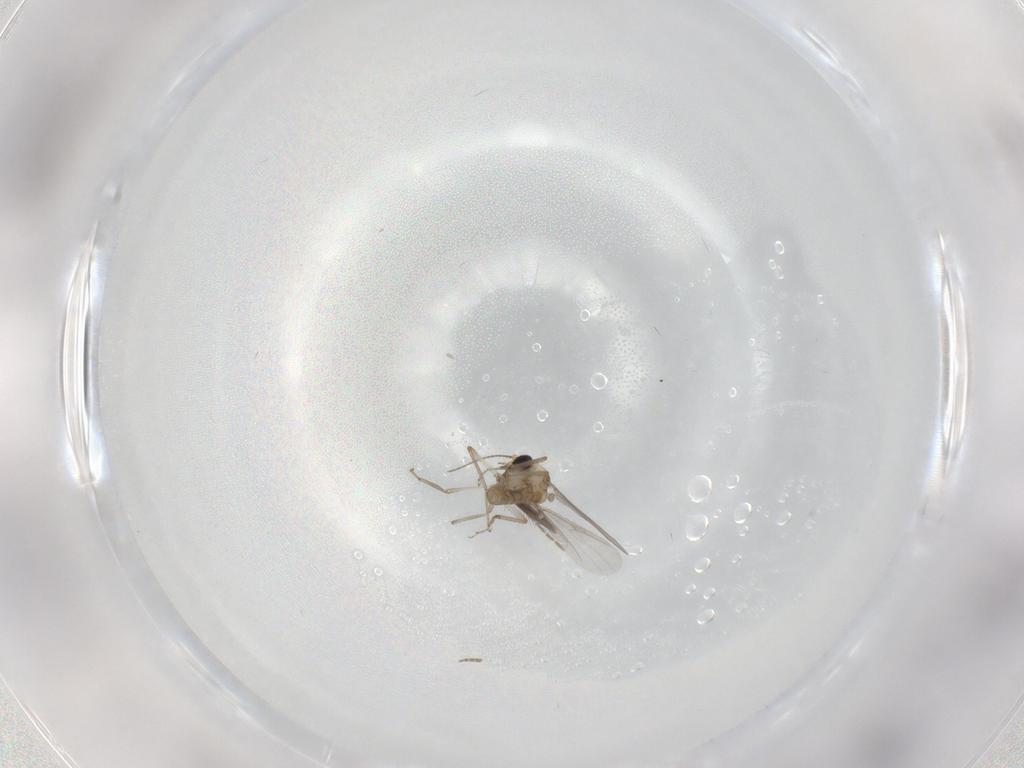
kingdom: Animalia
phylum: Arthropoda
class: Insecta
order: Diptera
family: Ceratopogonidae
